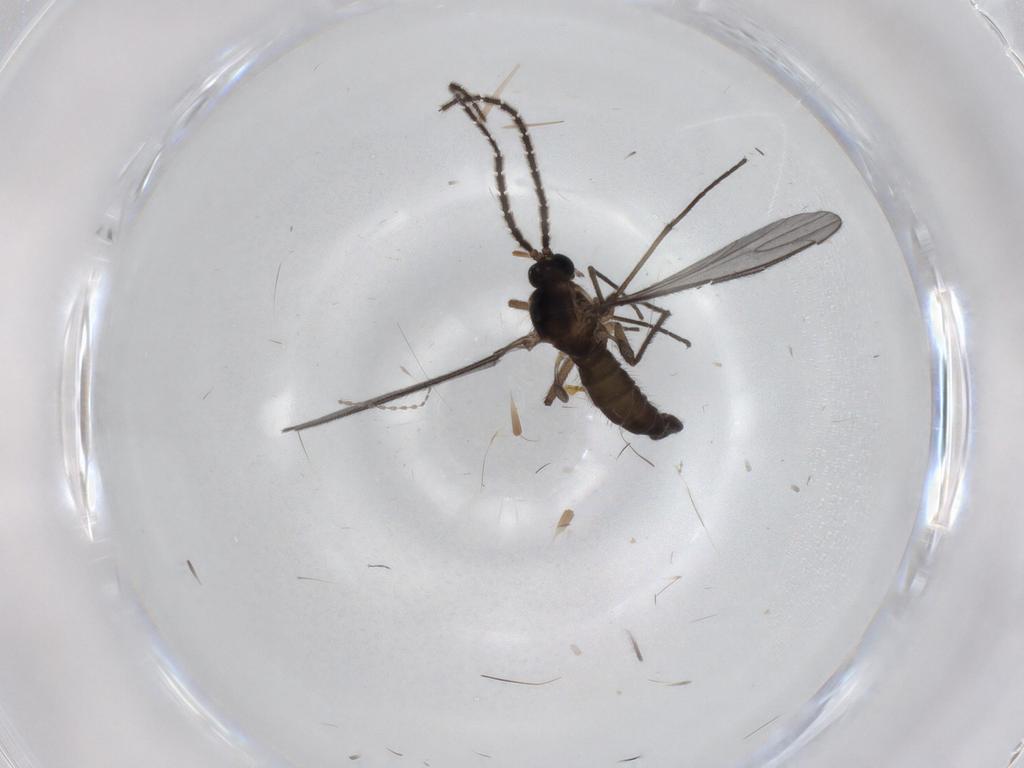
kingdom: Animalia
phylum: Arthropoda
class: Insecta
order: Diptera
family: Cecidomyiidae
